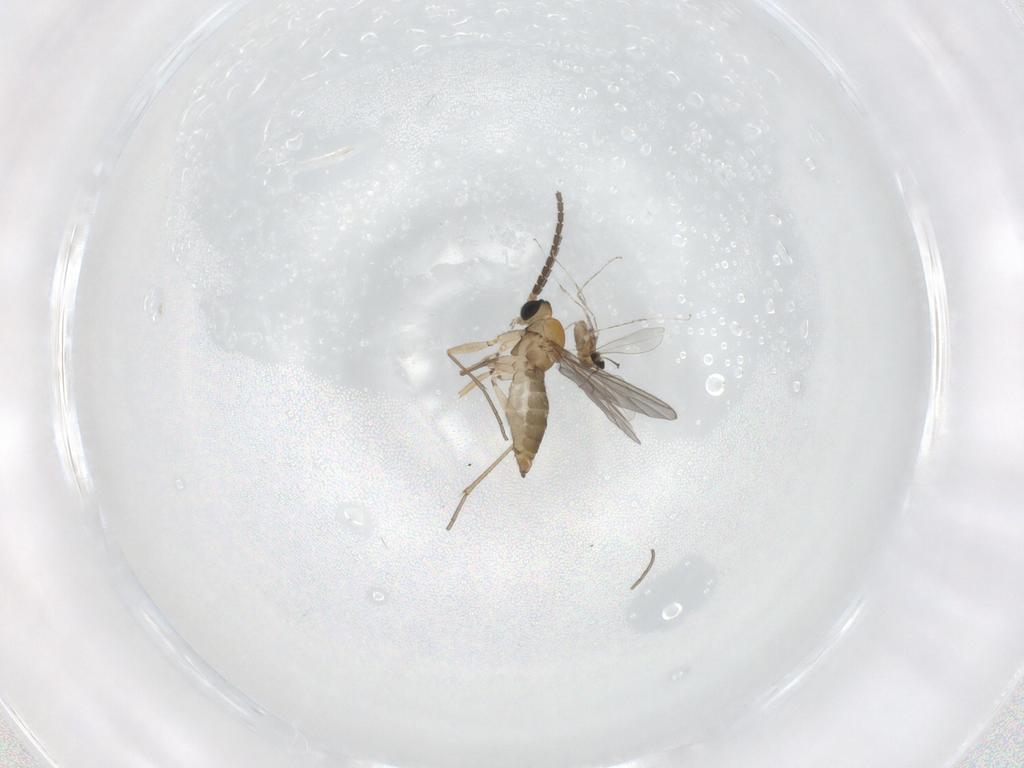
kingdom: Animalia
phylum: Arthropoda
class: Insecta
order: Diptera
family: Sciaridae
